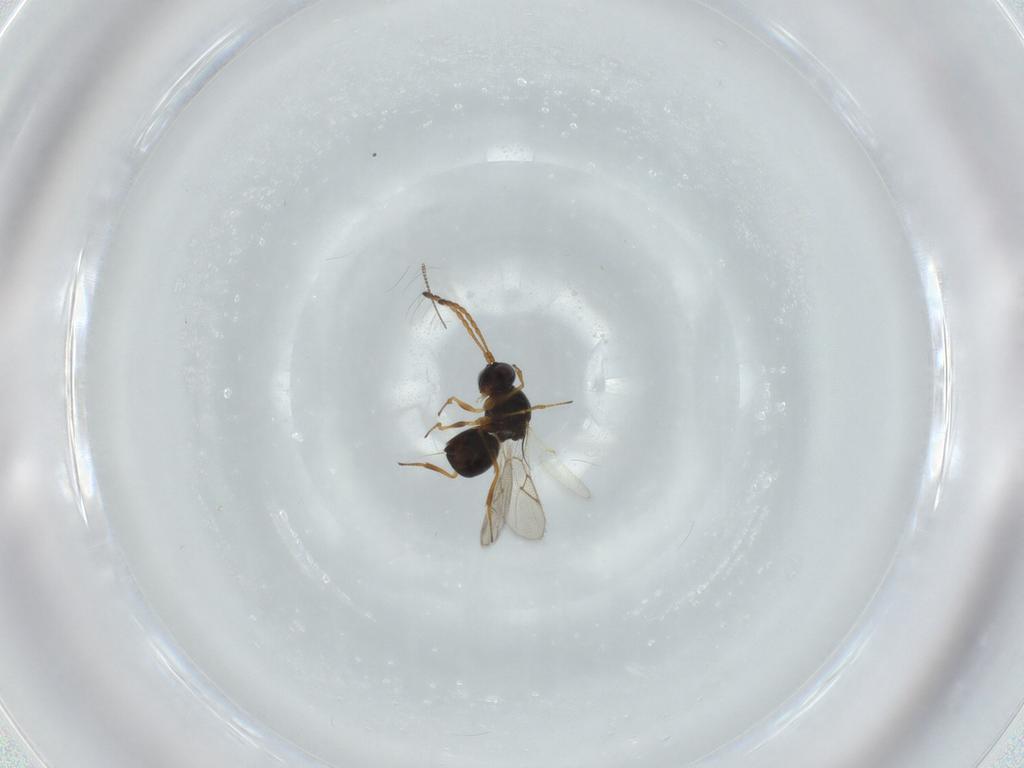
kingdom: Animalia
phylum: Arthropoda
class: Insecta
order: Hymenoptera
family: Figitidae
